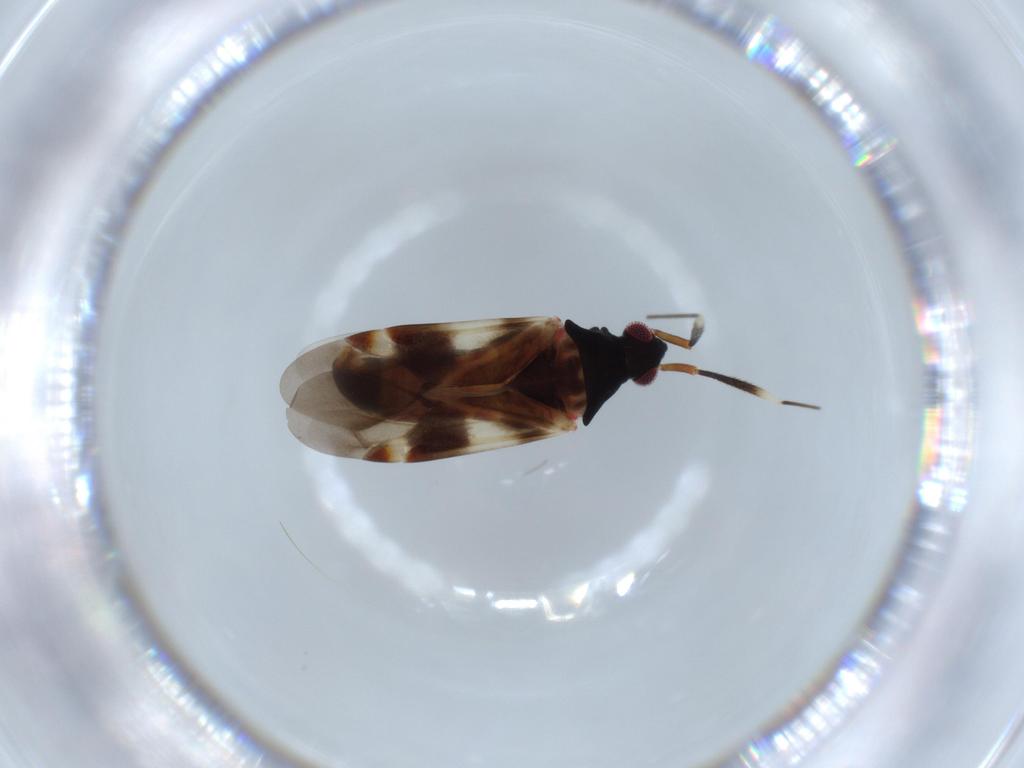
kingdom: Animalia
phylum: Arthropoda
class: Insecta
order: Hemiptera
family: Miridae
